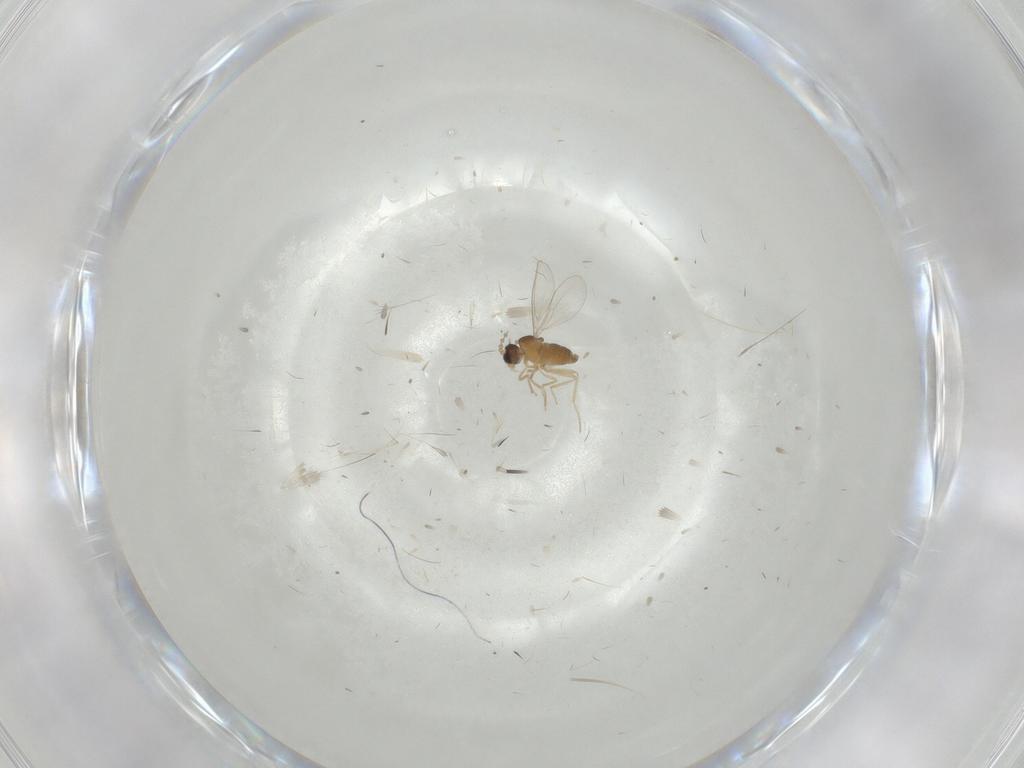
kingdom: Animalia
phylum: Arthropoda
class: Insecta
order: Diptera
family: Cecidomyiidae
